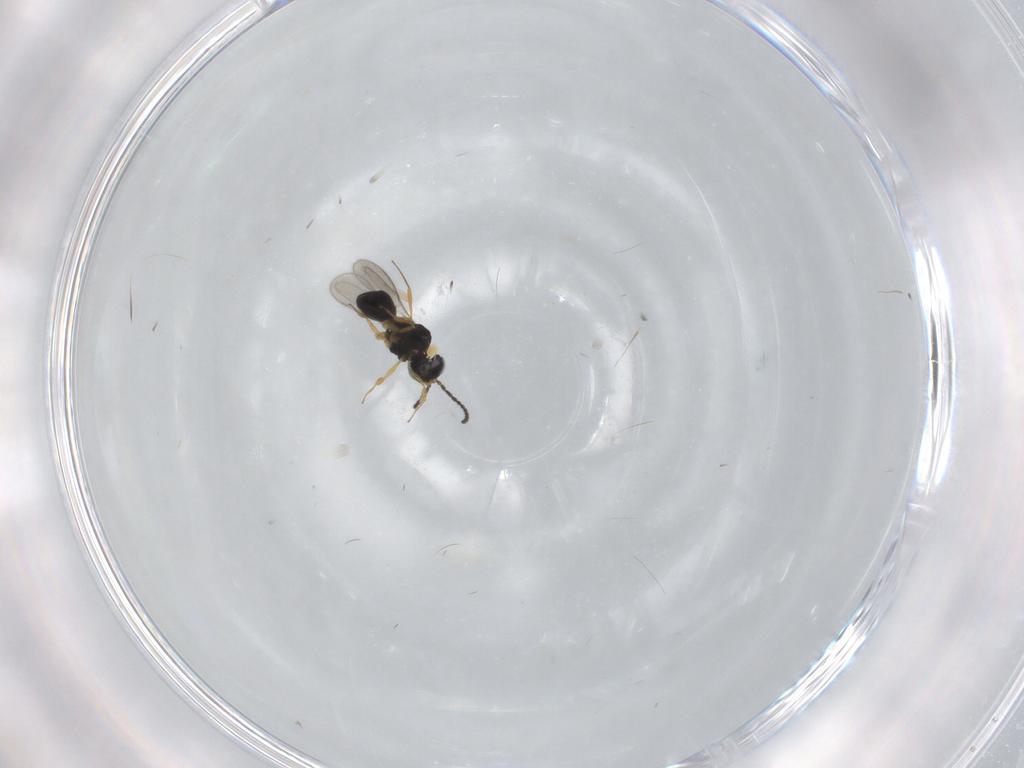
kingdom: Animalia
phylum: Arthropoda
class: Insecta
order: Hymenoptera
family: Scelionidae
